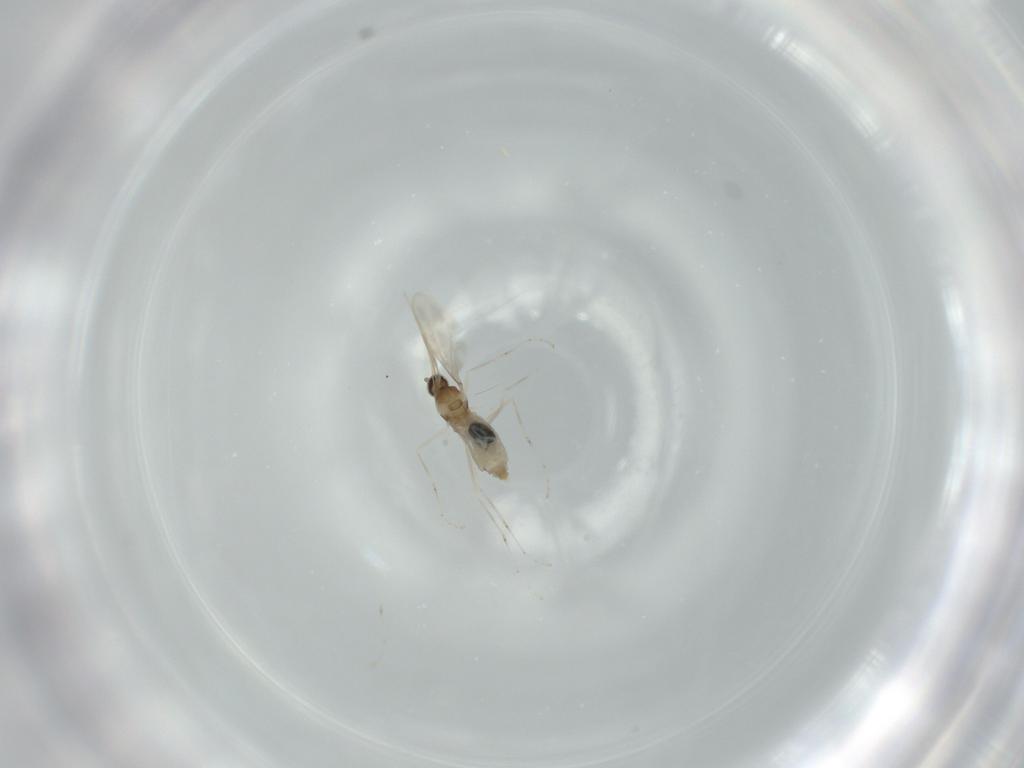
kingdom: Animalia
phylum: Arthropoda
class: Insecta
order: Diptera
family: Cecidomyiidae
